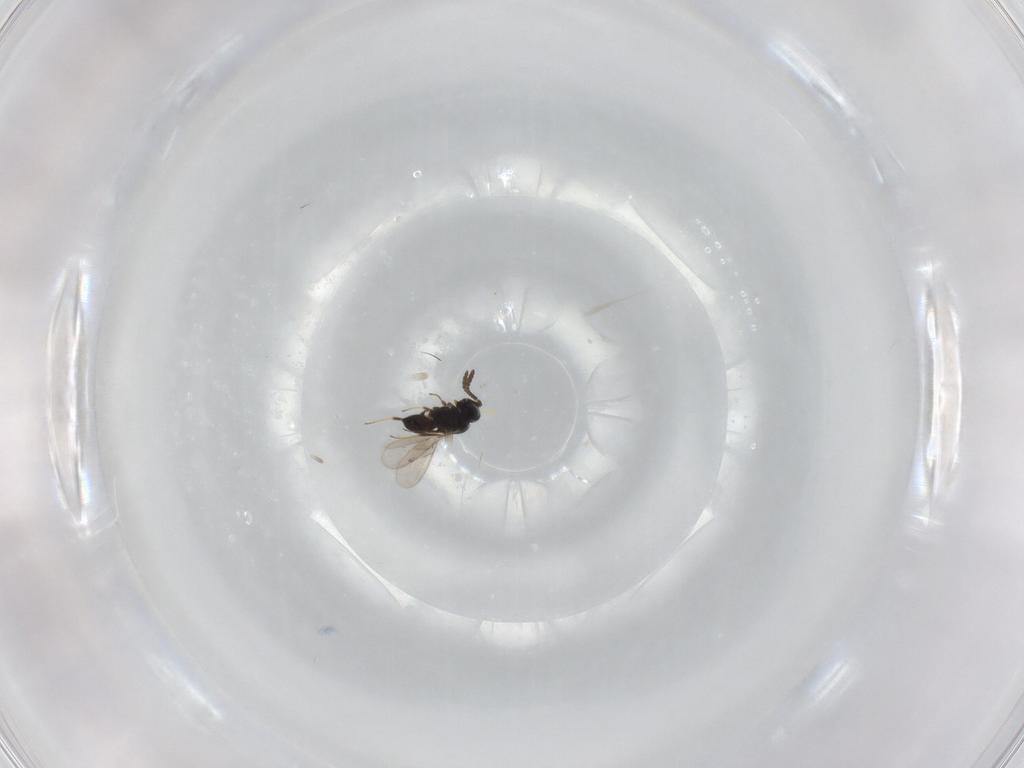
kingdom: Animalia
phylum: Arthropoda
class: Insecta
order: Hymenoptera
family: Scelionidae
